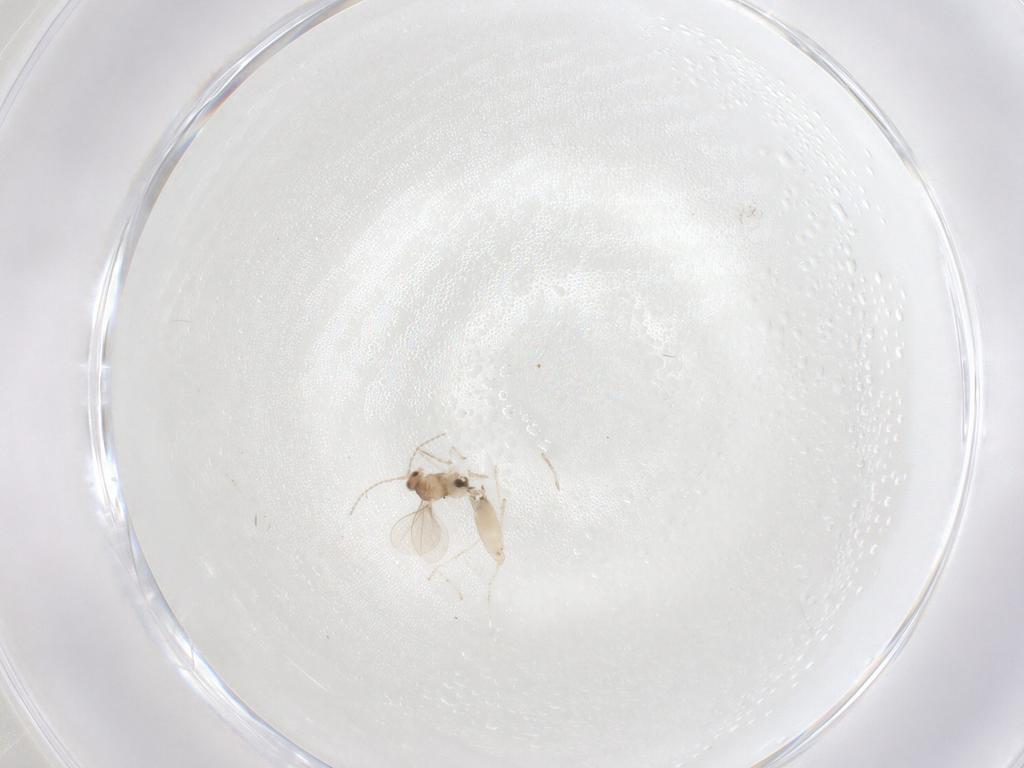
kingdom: Animalia
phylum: Arthropoda
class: Insecta
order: Diptera
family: Cecidomyiidae
